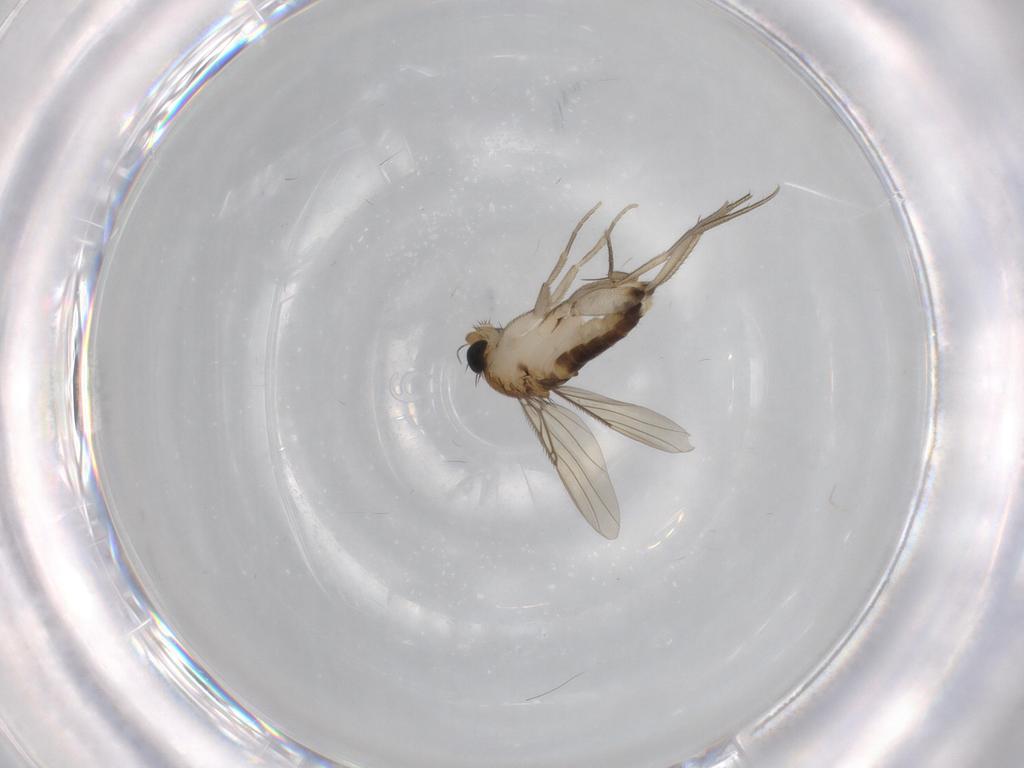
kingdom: Animalia
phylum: Arthropoda
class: Insecta
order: Diptera
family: Phoridae
